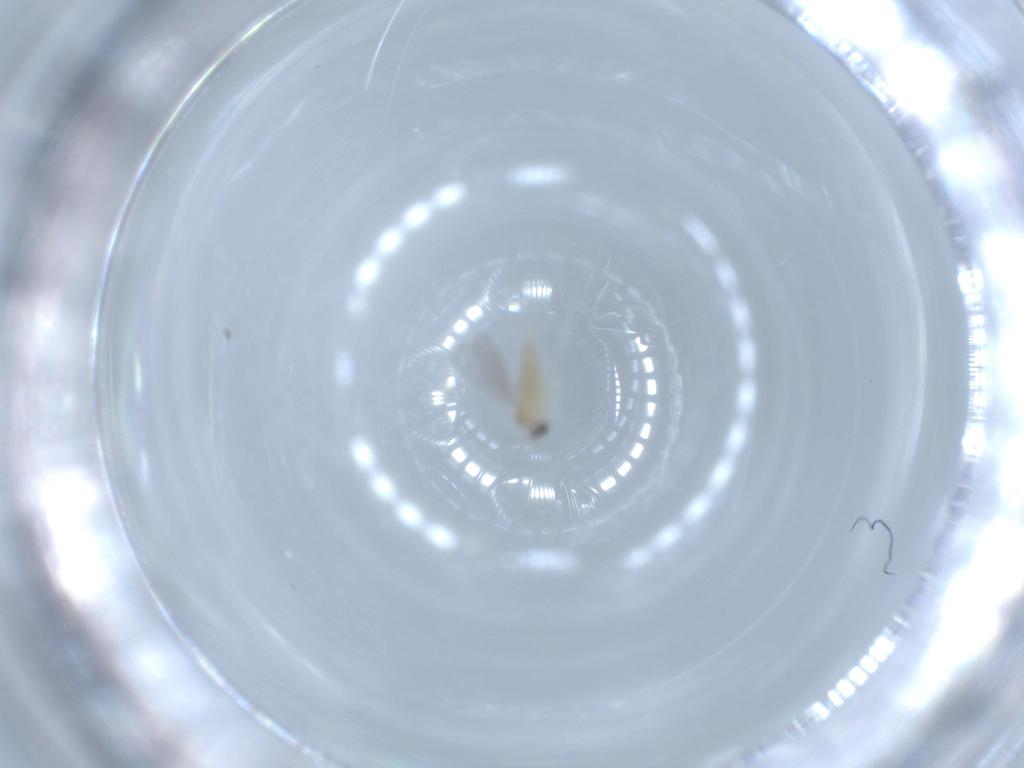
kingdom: Animalia
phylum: Arthropoda
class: Insecta
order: Diptera
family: Cecidomyiidae
